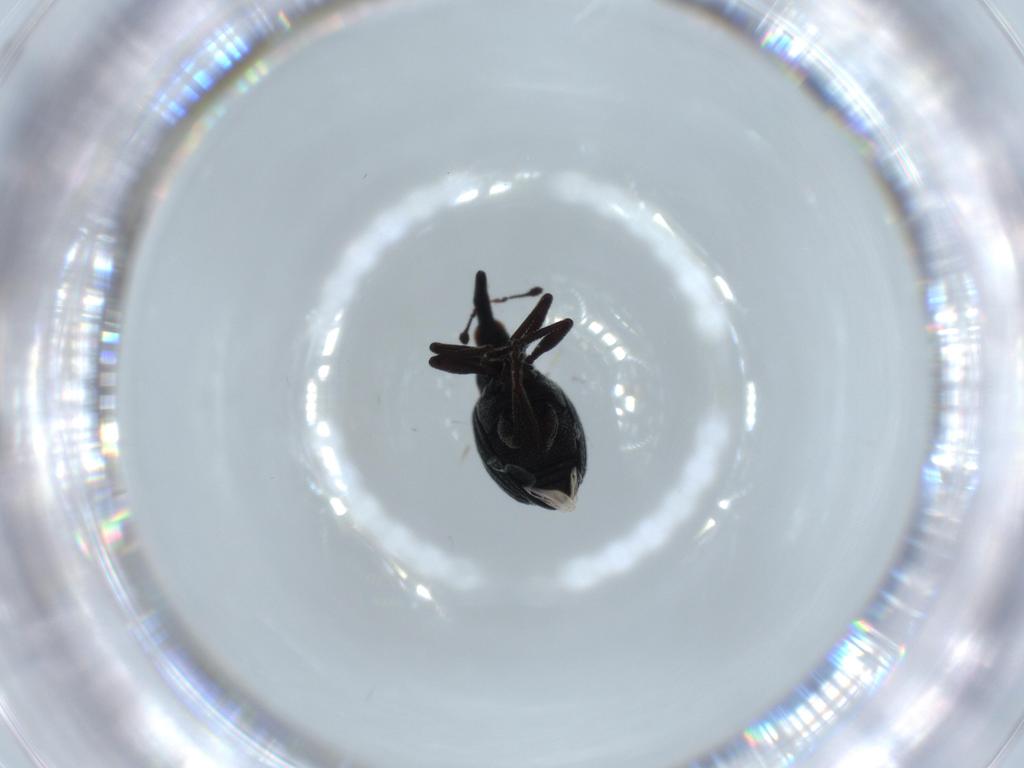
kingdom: Animalia
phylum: Arthropoda
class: Insecta
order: Coleoptera
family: Brentidae
